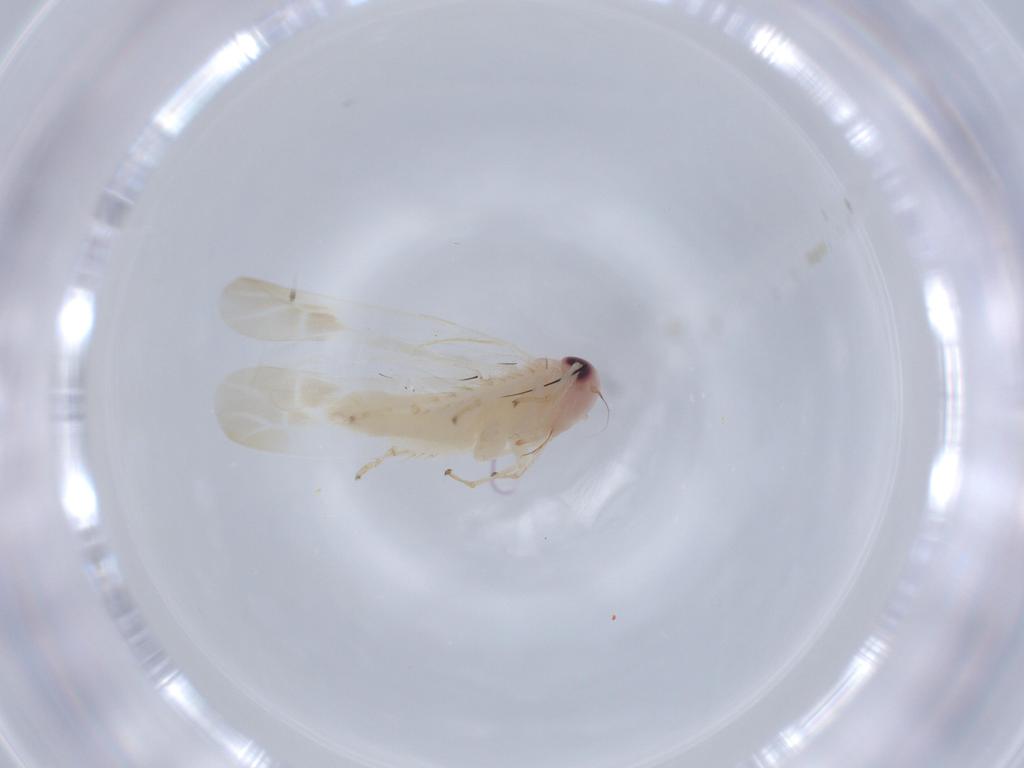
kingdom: Animalia
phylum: Arthropoda
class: Insecta
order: Hemiptera
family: Cicadellidae
